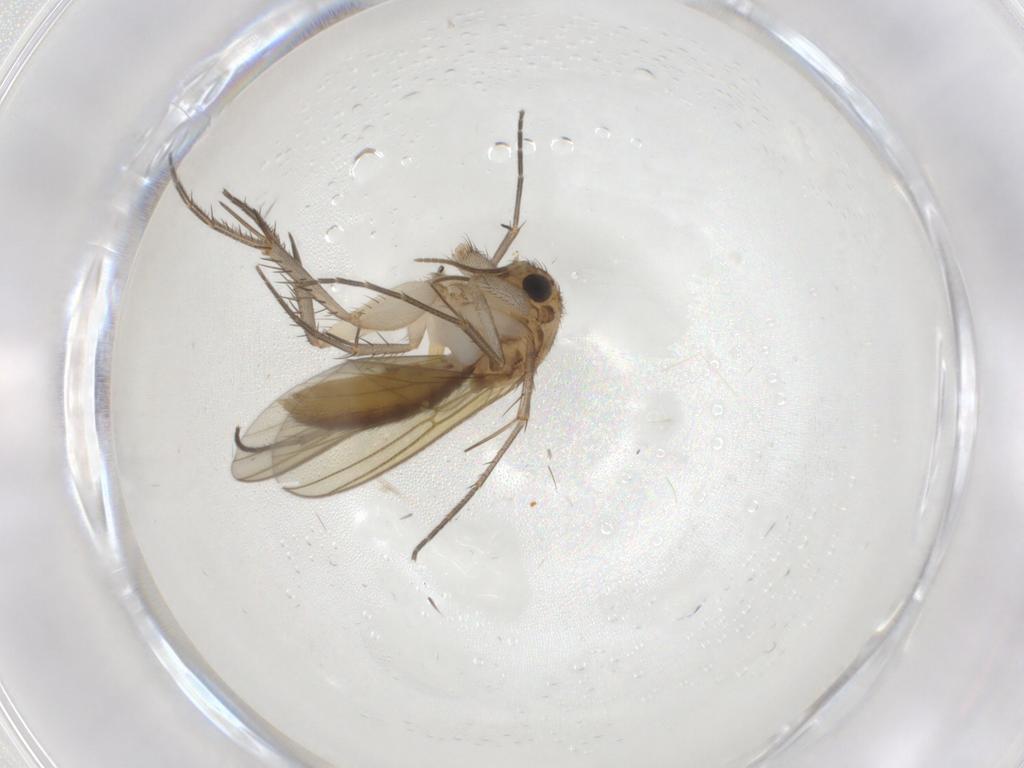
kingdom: Animalia
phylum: Arthropoda
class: Insecta
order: Diptera
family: Mycetophilidae
